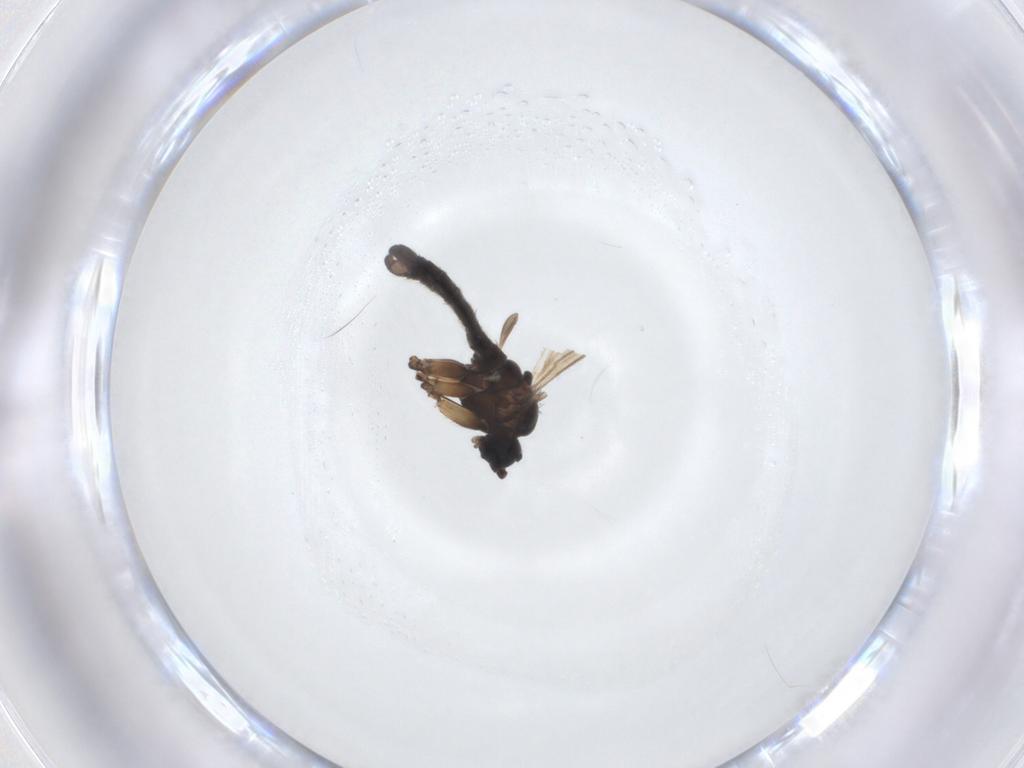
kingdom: Animalia
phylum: Arthropoda
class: Insecta
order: Diptera
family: Sciaridae
